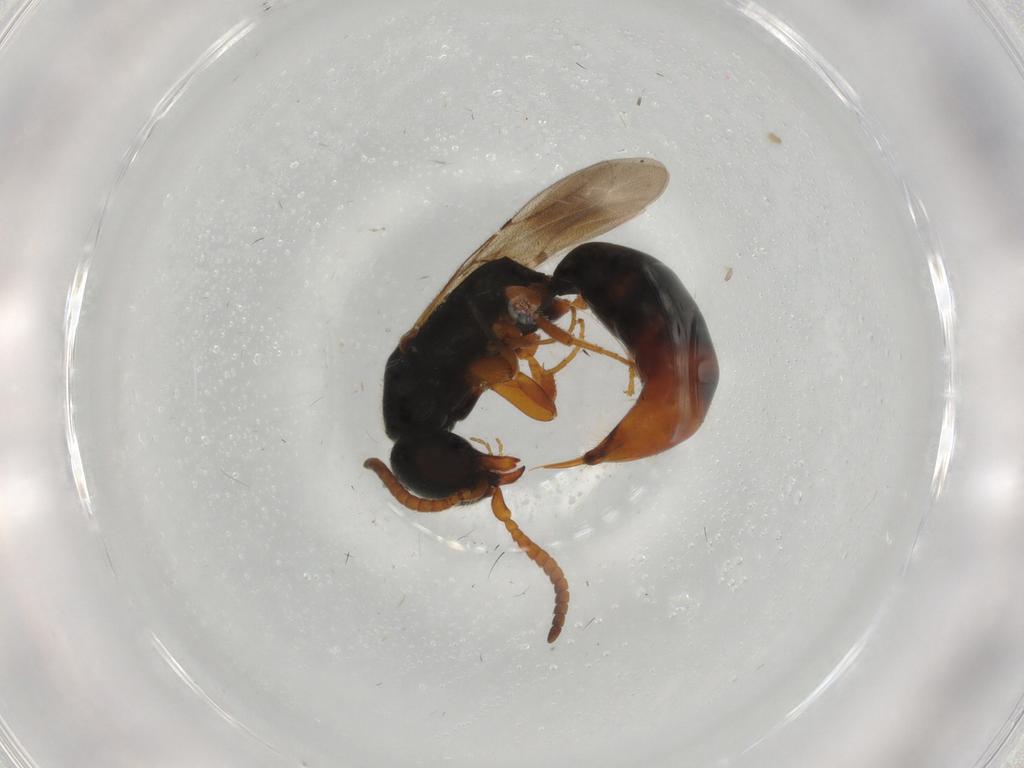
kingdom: Animalia
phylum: Arthropoda
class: Insecta
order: Hymenoptera
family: Bethylidae
